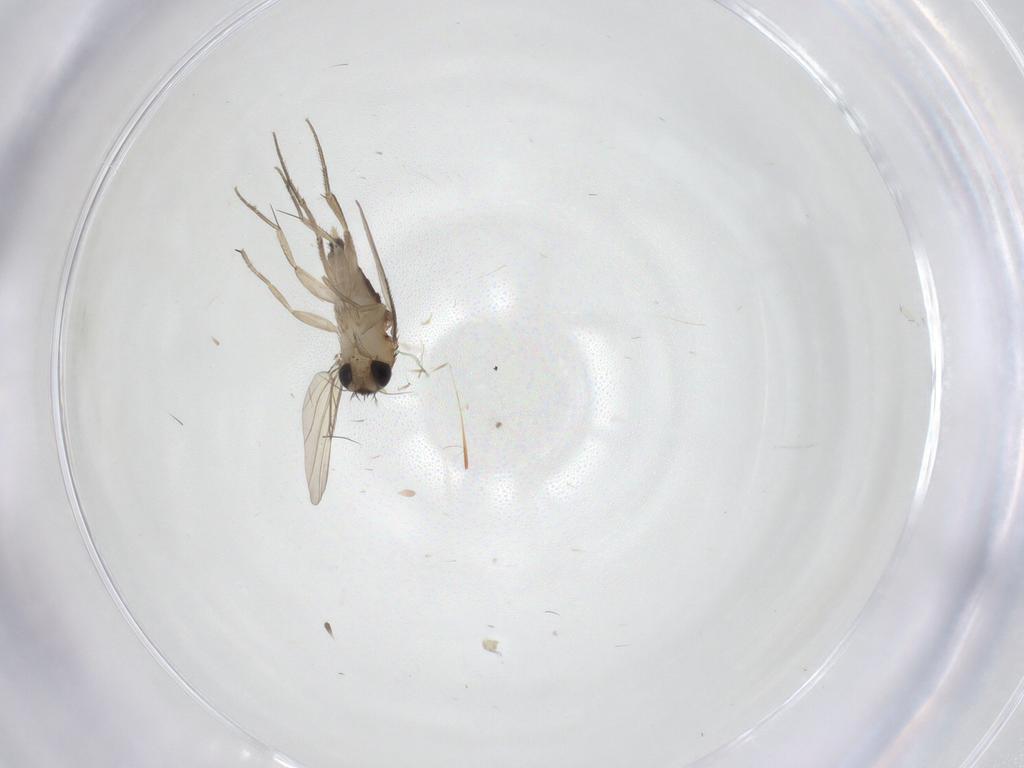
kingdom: Animalia
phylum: Arthropoda
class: Insecta
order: Diptera
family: Phoridae
